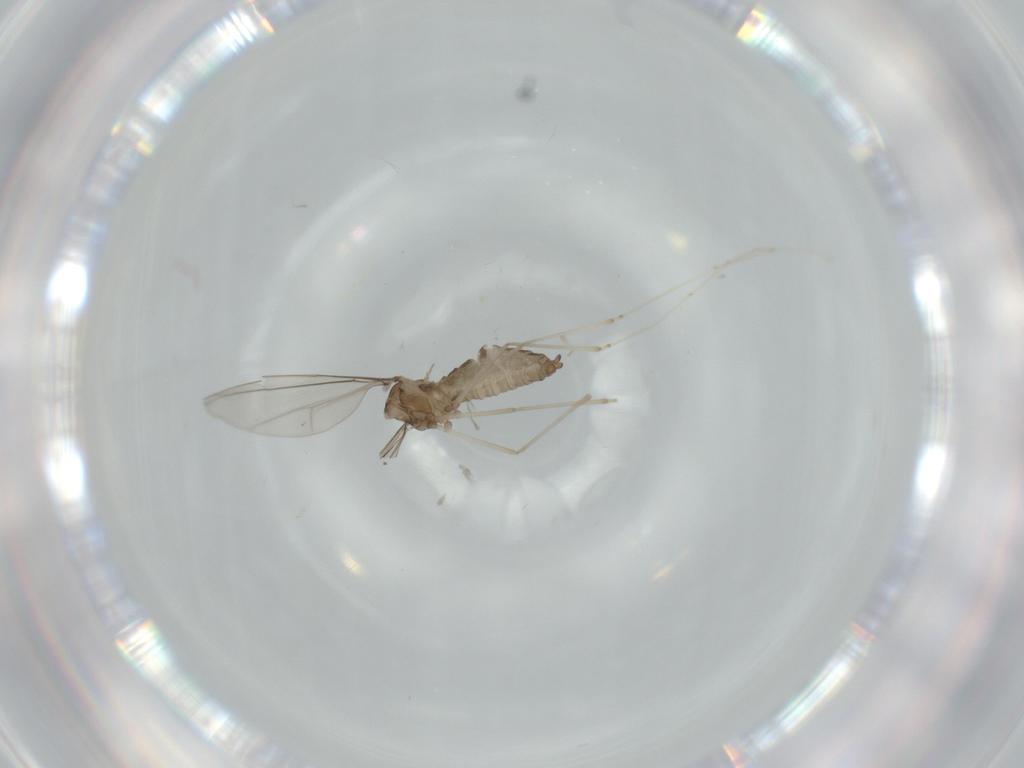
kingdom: Animalia
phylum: Arthropoda
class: Insecta
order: Diptera
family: Cecidomyiidae
